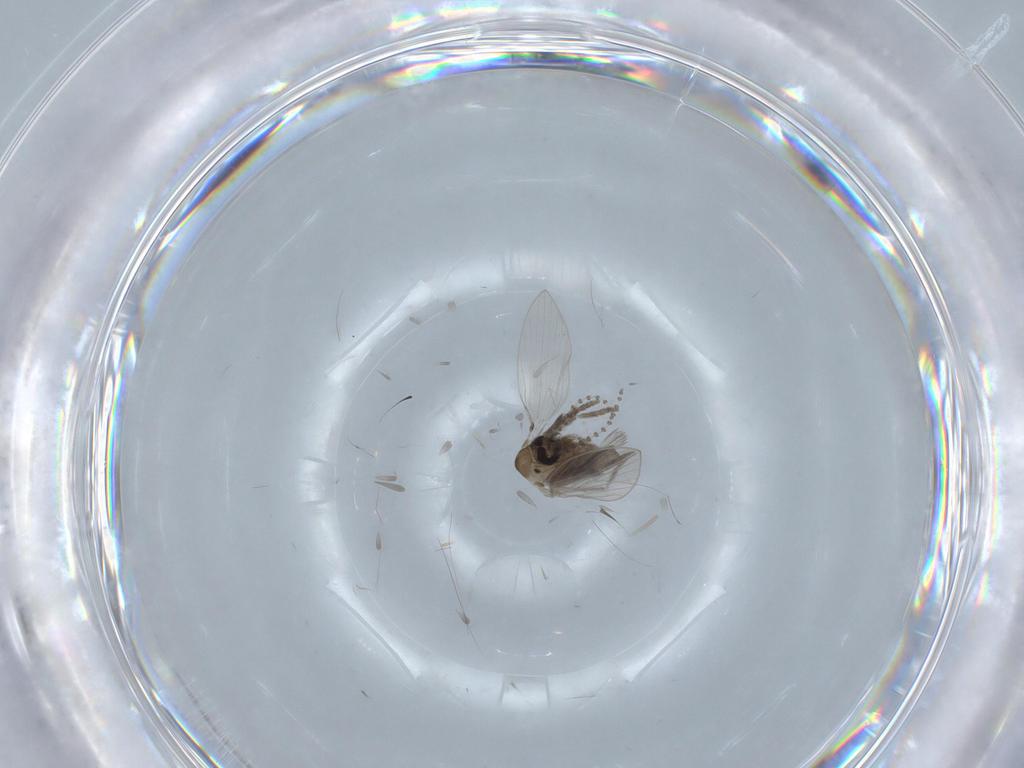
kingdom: Animalia
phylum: Arthropoda
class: Insecta
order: Diptera
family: Psychodidae
